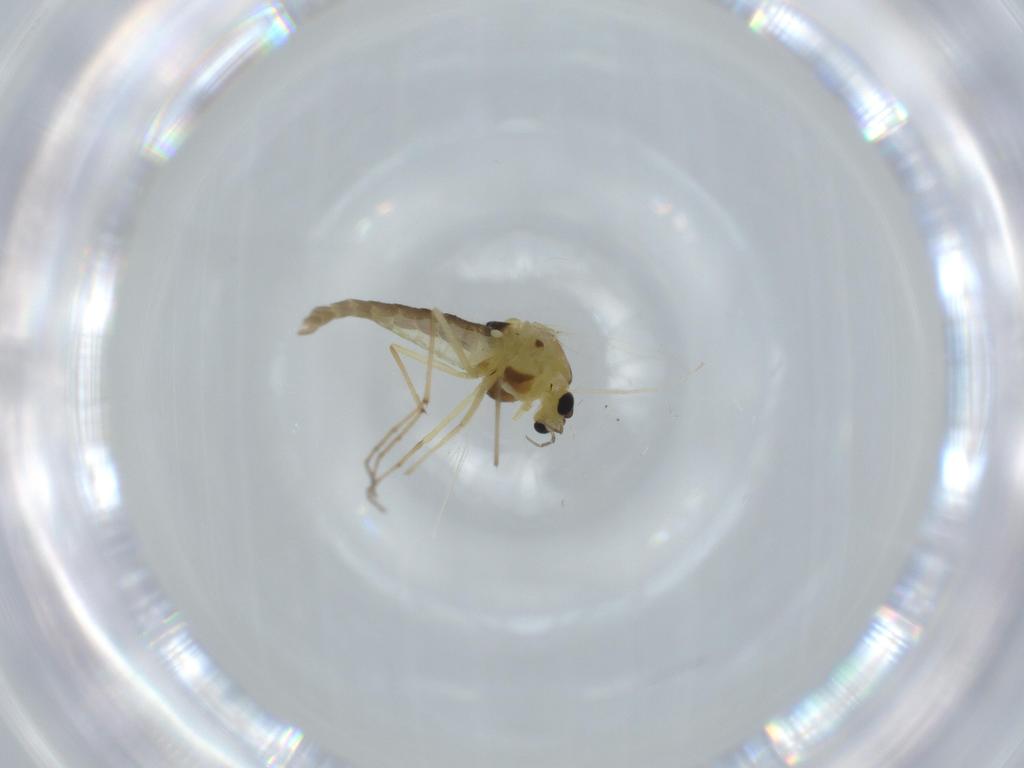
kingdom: Animalia
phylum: Arthropoda
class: Insecta
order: Diptera
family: Chironomidae
